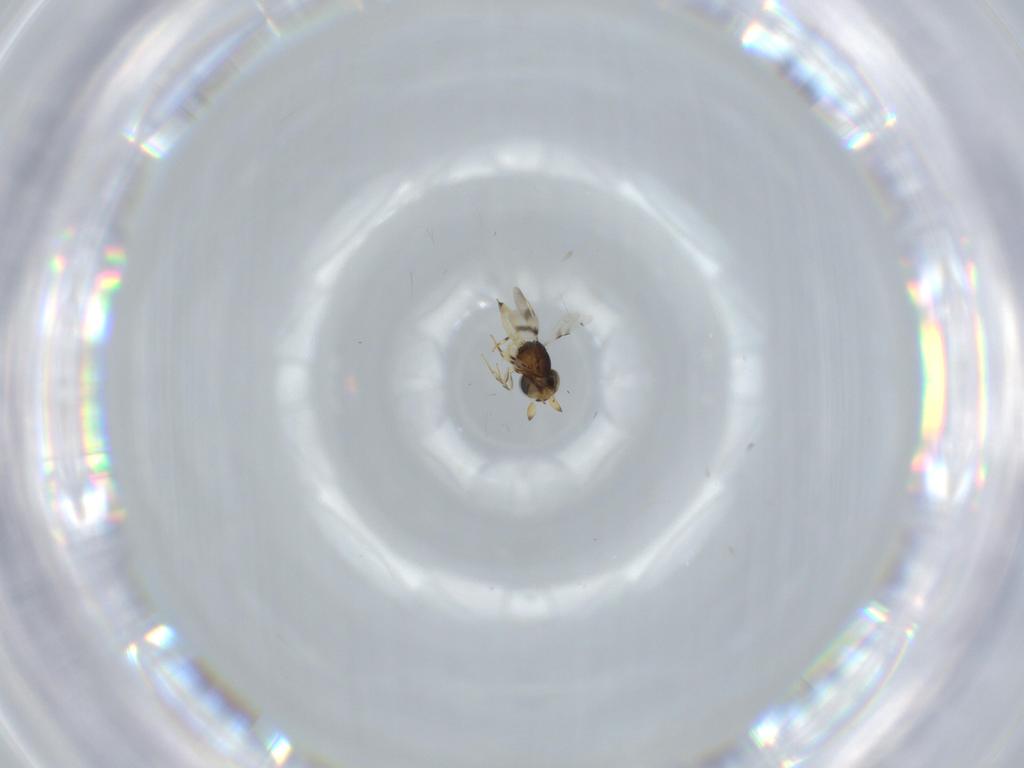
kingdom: Animalia
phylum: Arthropoda
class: Insecta
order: Hymenoptera
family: Scelionidae
